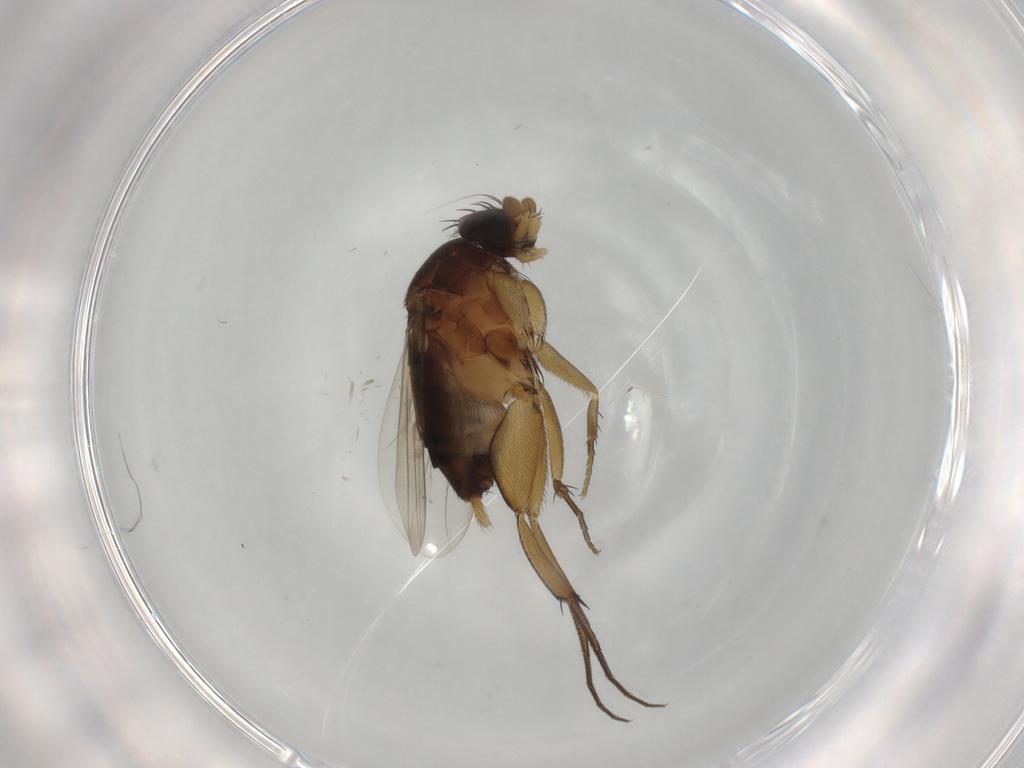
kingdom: Animalia
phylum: Arthropoda
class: Insecta
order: Diptera
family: Phoridae
